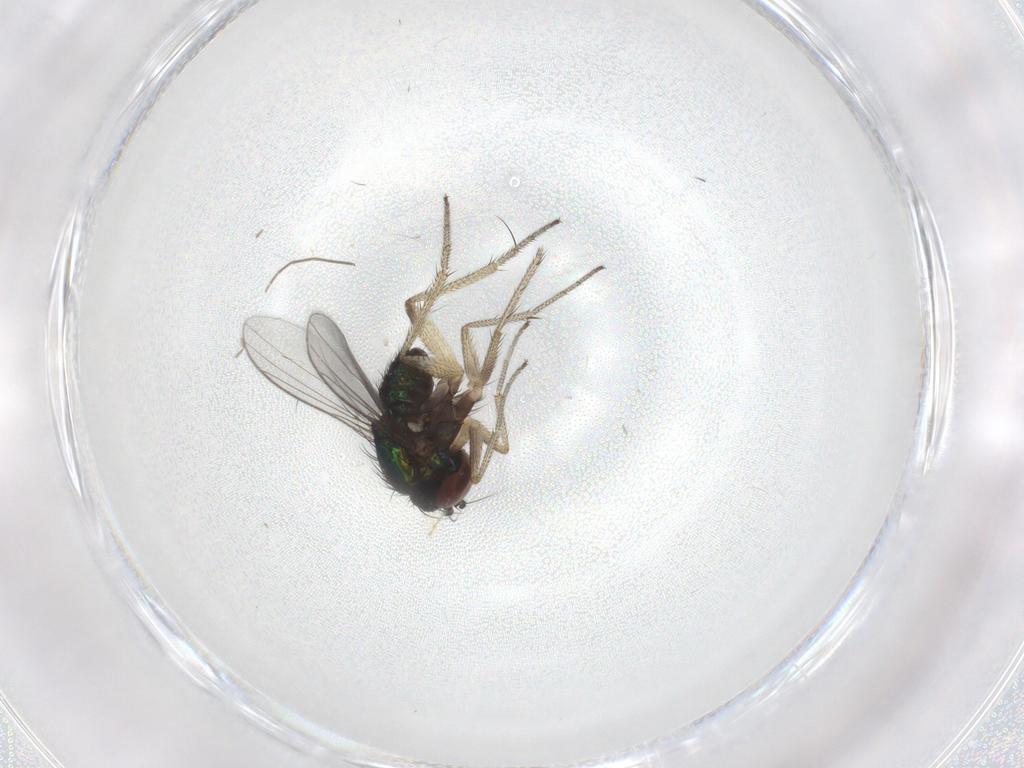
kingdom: Animalia
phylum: Arthropoda
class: Insecta
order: Diptera
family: Dolichopodidae
